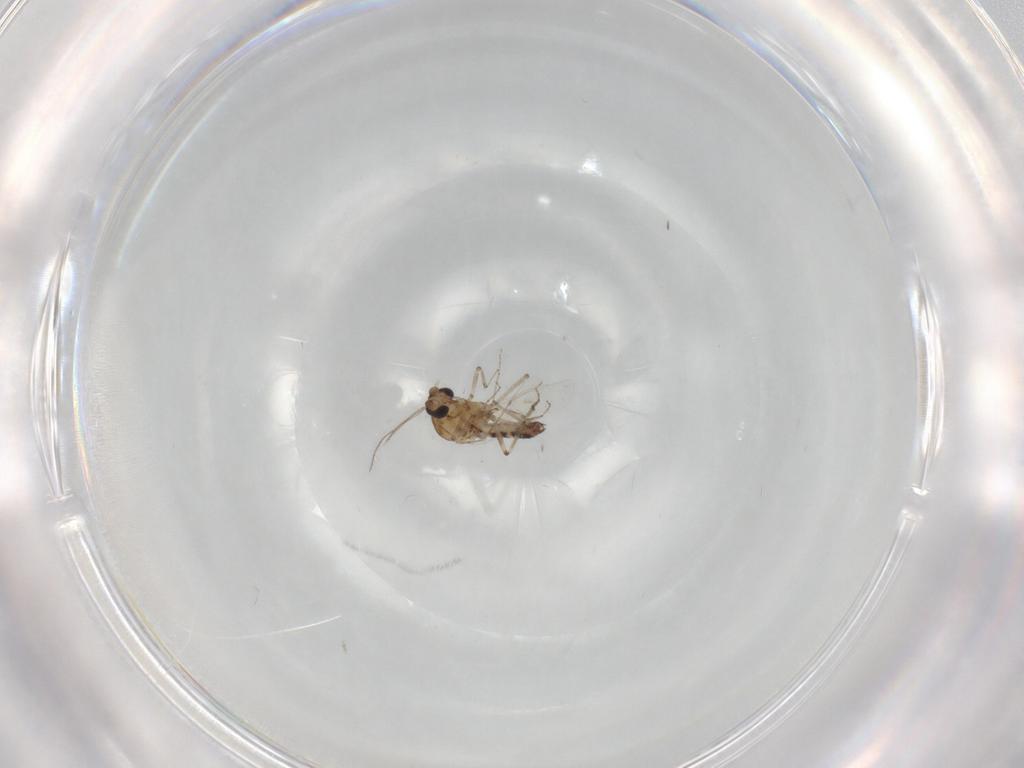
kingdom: Animalia
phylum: Arthropoda
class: Insecta
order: Diptera
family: Ceratopogonidae
